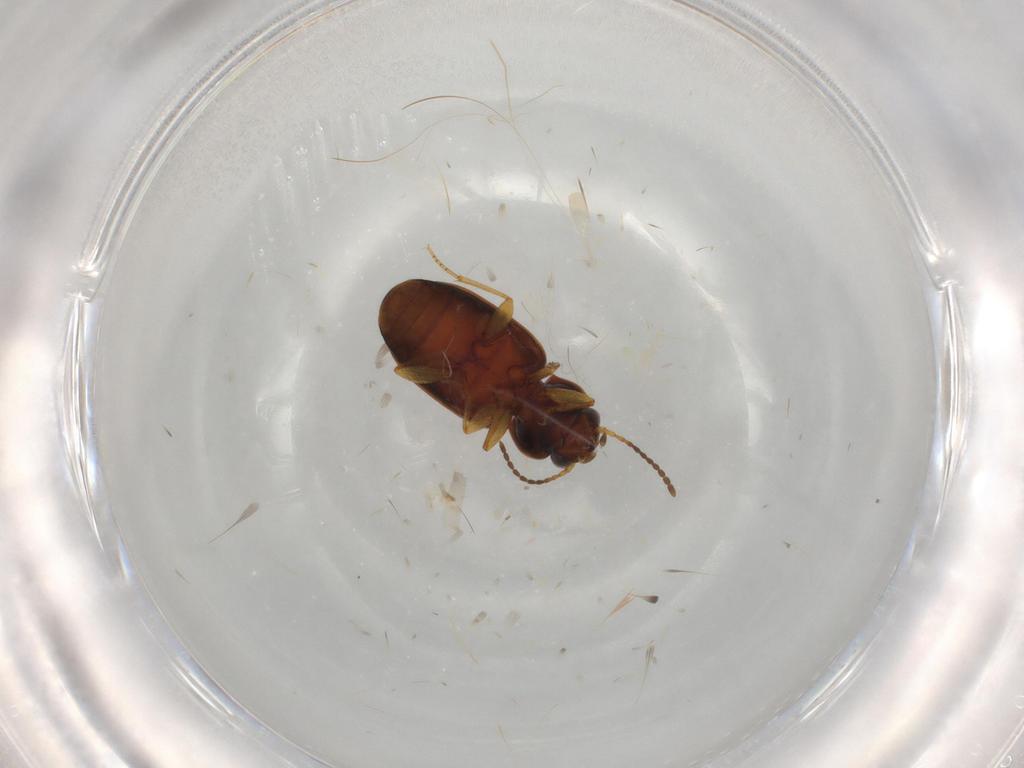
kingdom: Animalia
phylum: Arthropoda
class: Insecta
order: Coleoptera
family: Carabidae
